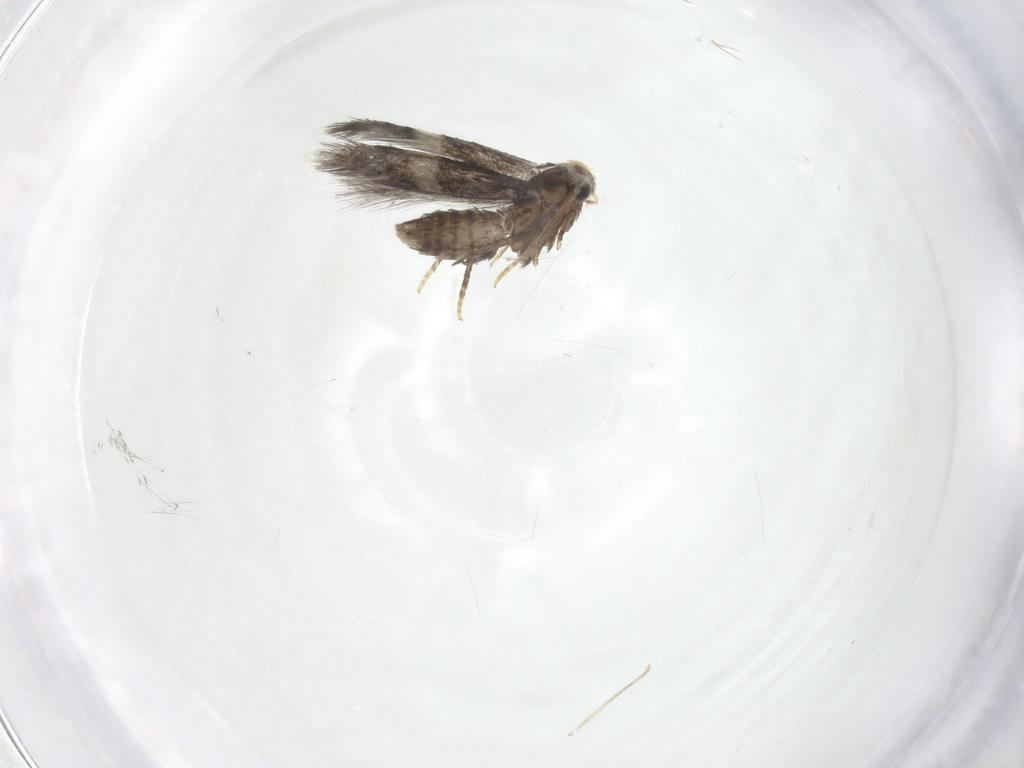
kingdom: Animalia
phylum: Arthropoda
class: Insecta
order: Lepidoptera
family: Nepticulidae
